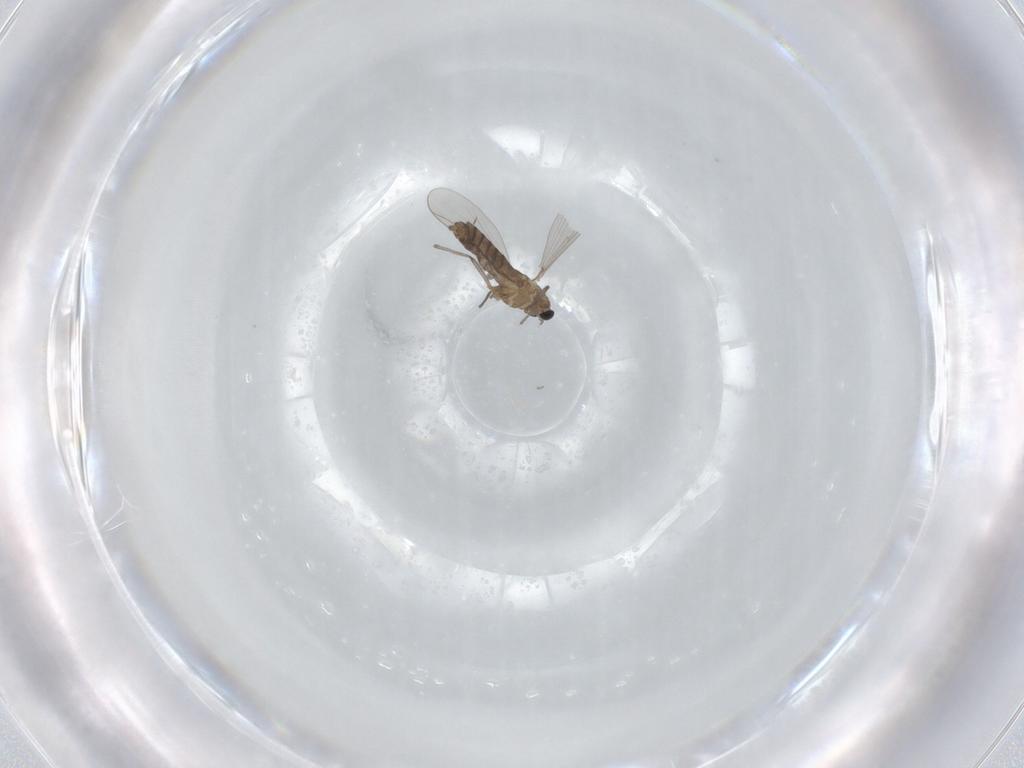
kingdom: Animalia
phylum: Arthropoda
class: Insecta
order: Diptera
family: Chironomidae
